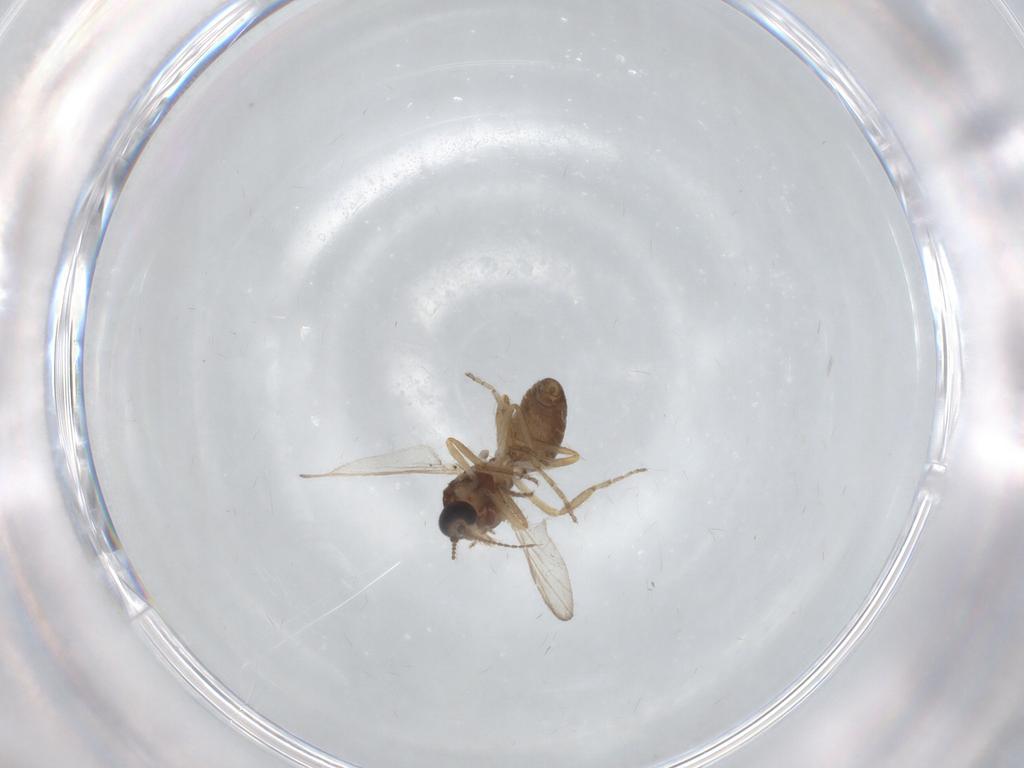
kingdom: Animalia
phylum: Arthropoda
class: Insecta
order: Diptera
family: Ceratopogonidae
